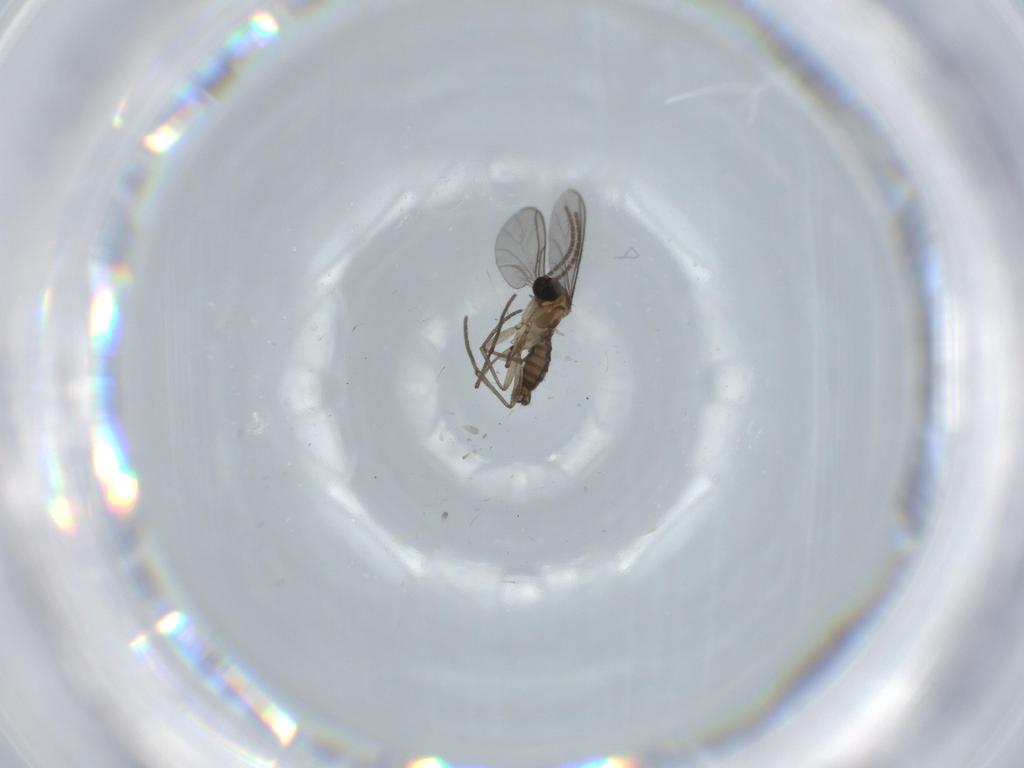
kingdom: Animalia
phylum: Arthropoda
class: Insecta
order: Diptera
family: Sciaridae
